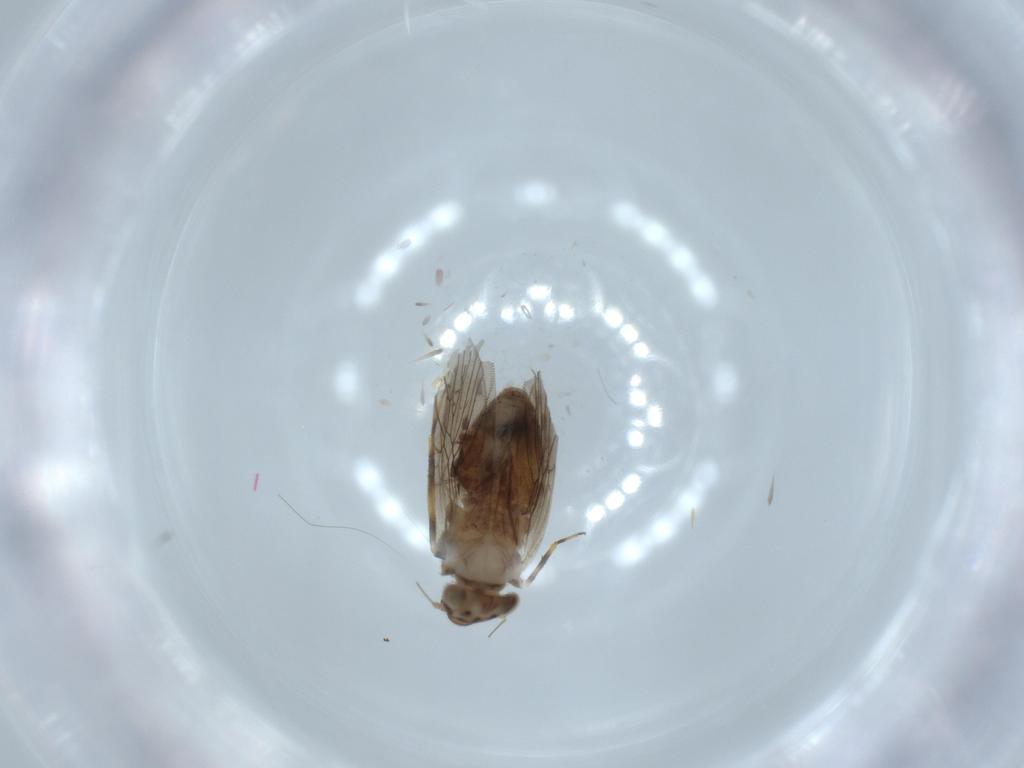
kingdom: Animalia
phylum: Arthropoda
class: Insecta
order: Psocodea
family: Lepidopsocidae
